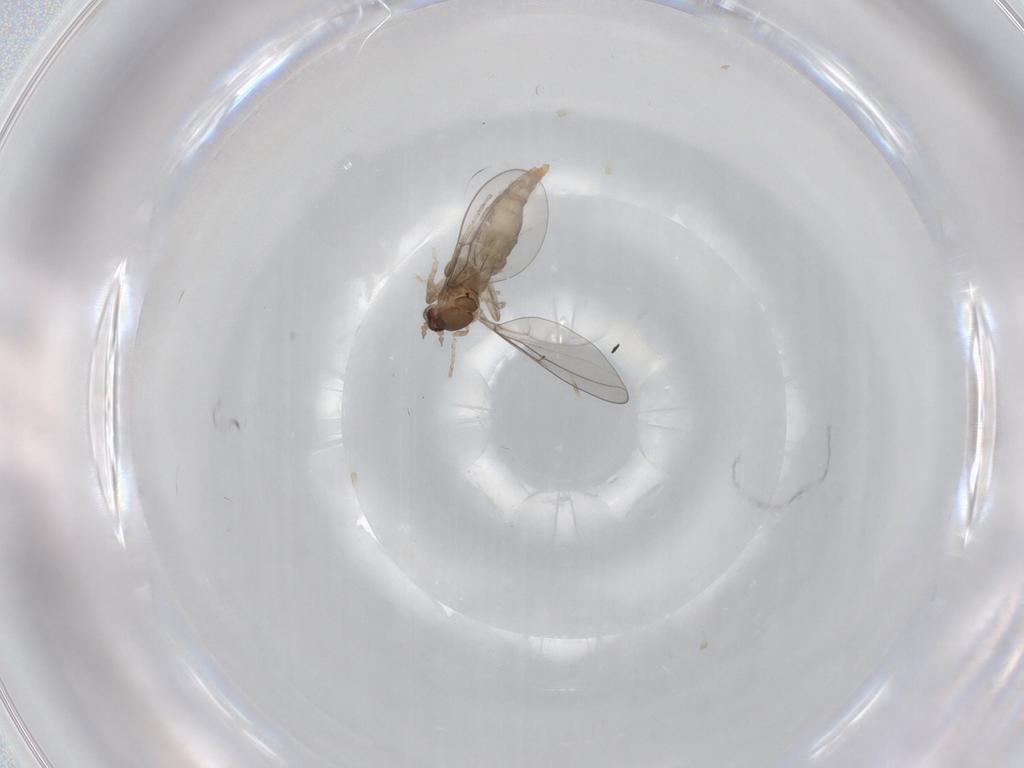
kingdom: Animalia
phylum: Arthropoda
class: Insecta
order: Diptera
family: Cecidomyiidae
